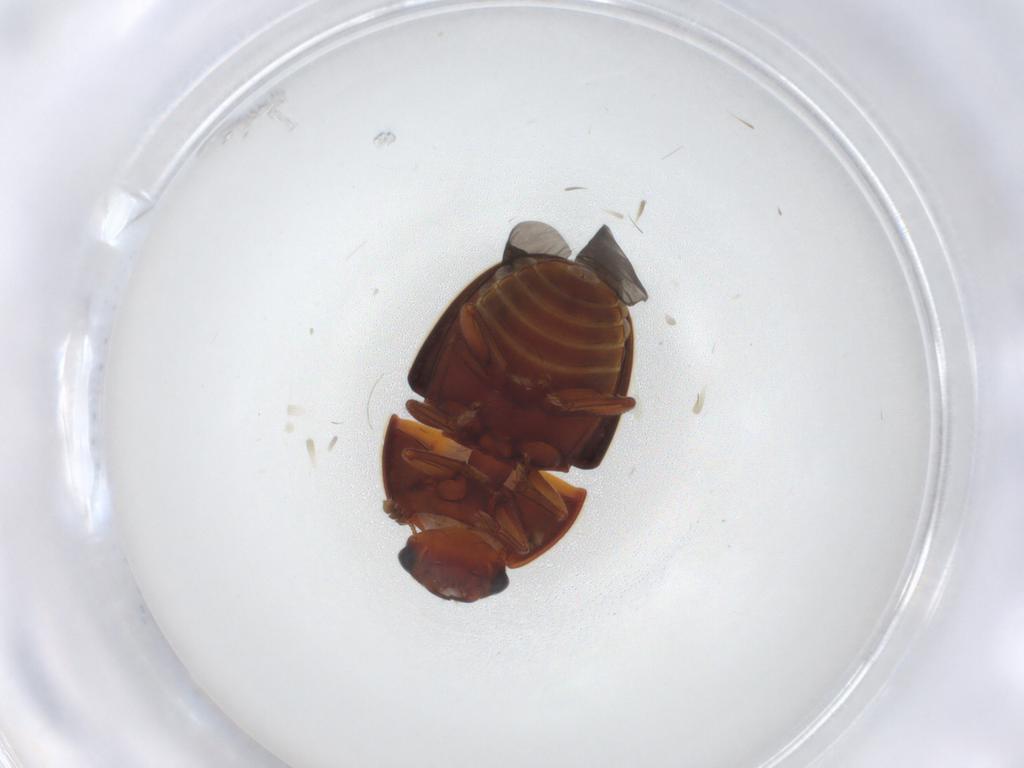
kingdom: Animalia
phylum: Arthropoda
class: Insecta
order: Coleoptera
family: Nitidulidae
